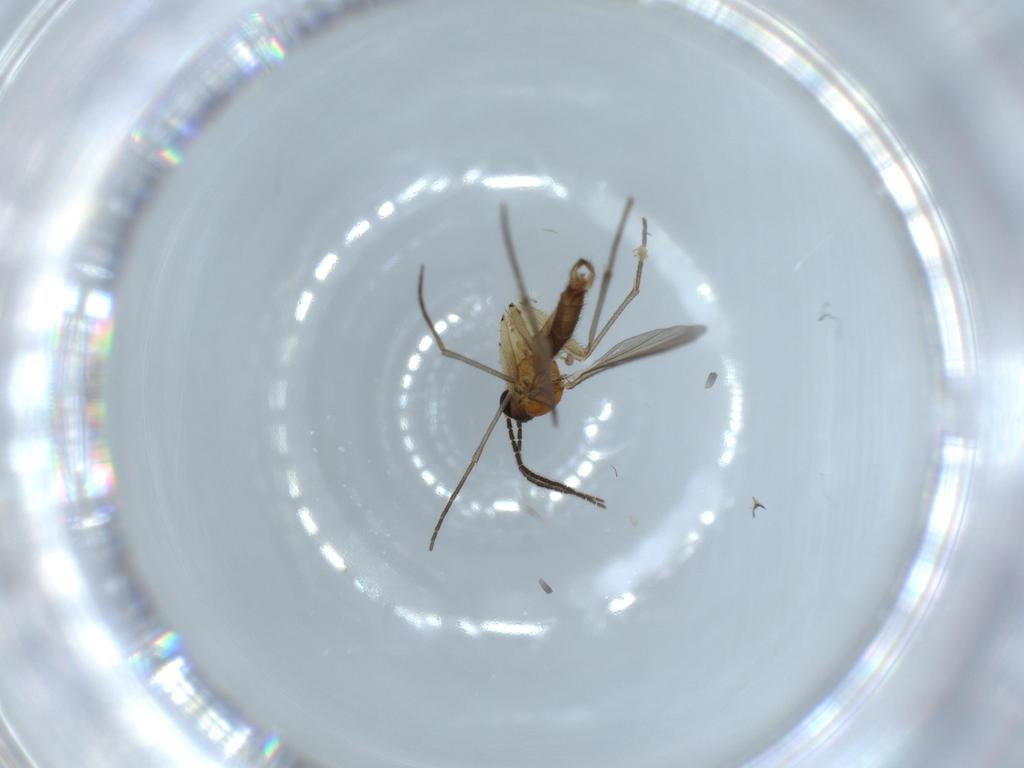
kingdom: Animalia
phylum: Arthropoda
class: Insecta
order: Diptera
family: Sciaridae
